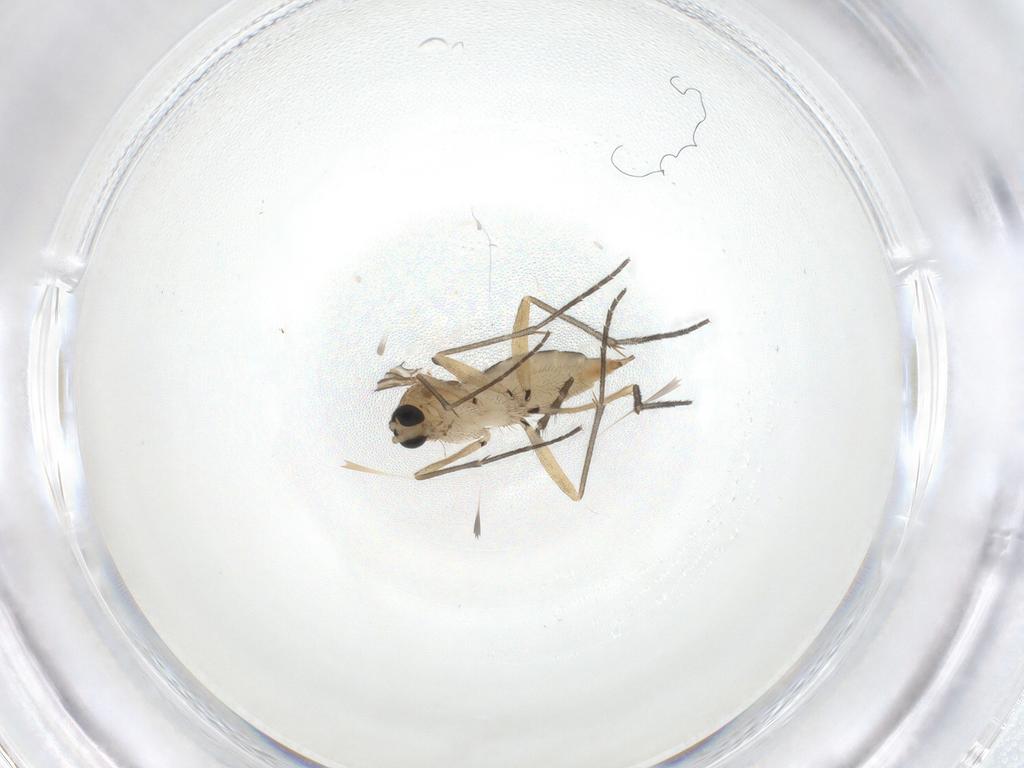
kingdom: Animalia
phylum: Arthropoda
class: Insecta
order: Diptera
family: Sciaridae
